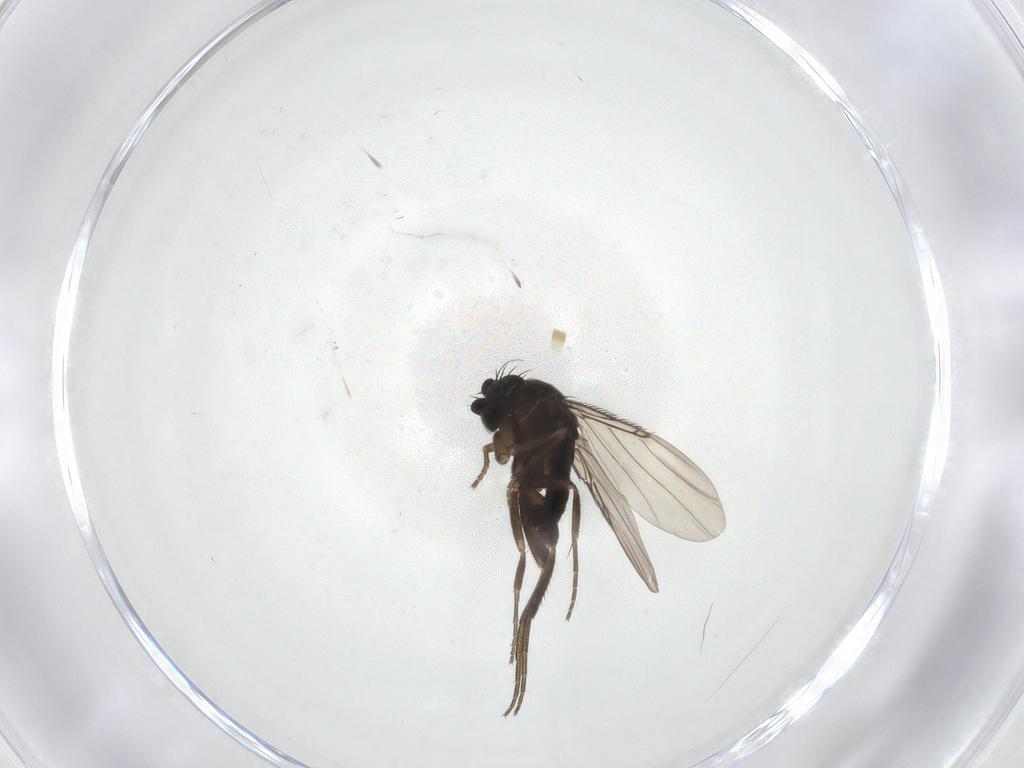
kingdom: Animalia
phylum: Arthropoda
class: Insecta
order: Diptera
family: Phoridae
